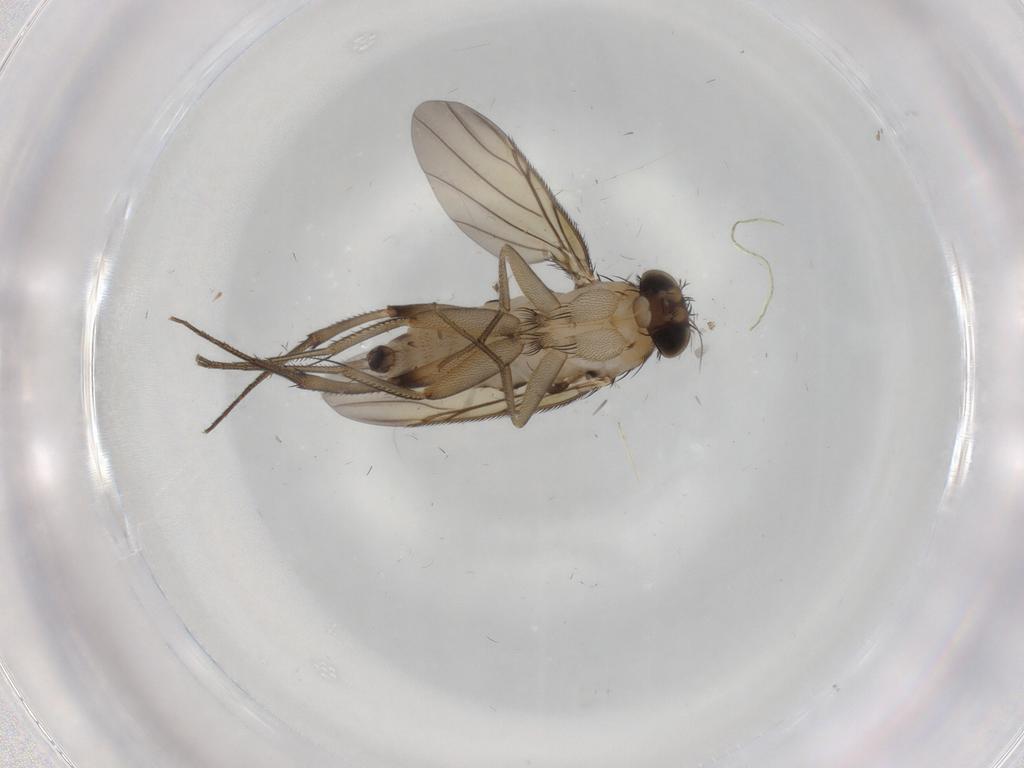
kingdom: Animalia
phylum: Arthropoda
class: Insecta
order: Diptera
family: Phoridae
